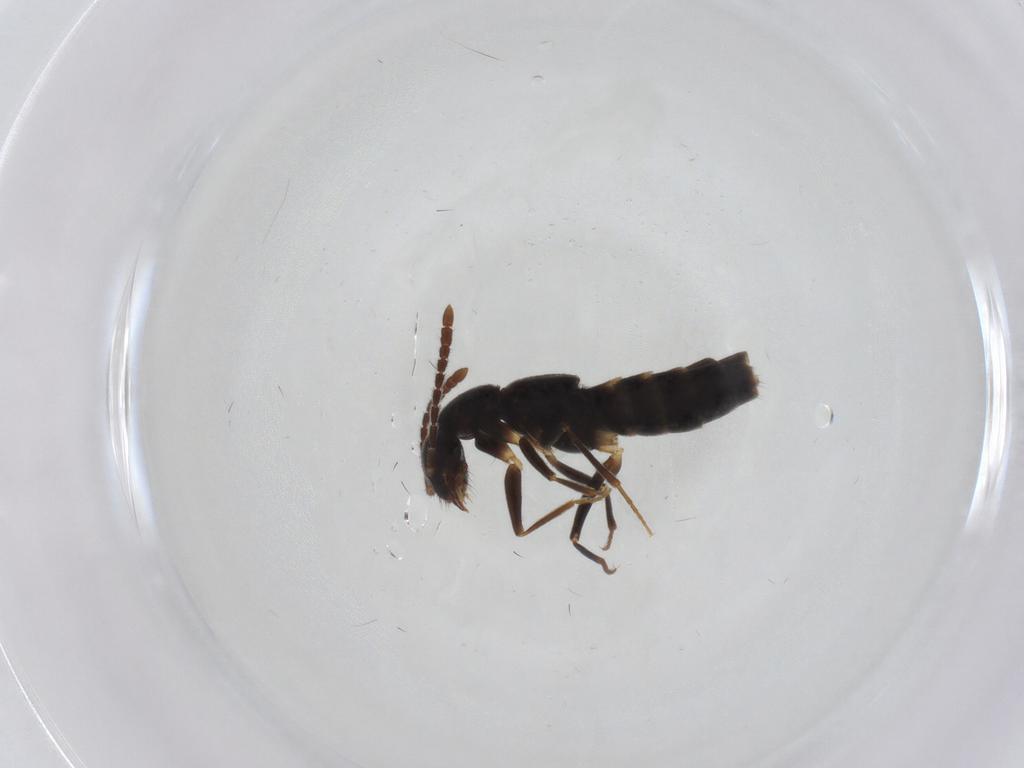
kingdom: Animalia
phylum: Arthropoda
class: Insecta
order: Coleoptera
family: Staphylinidae
